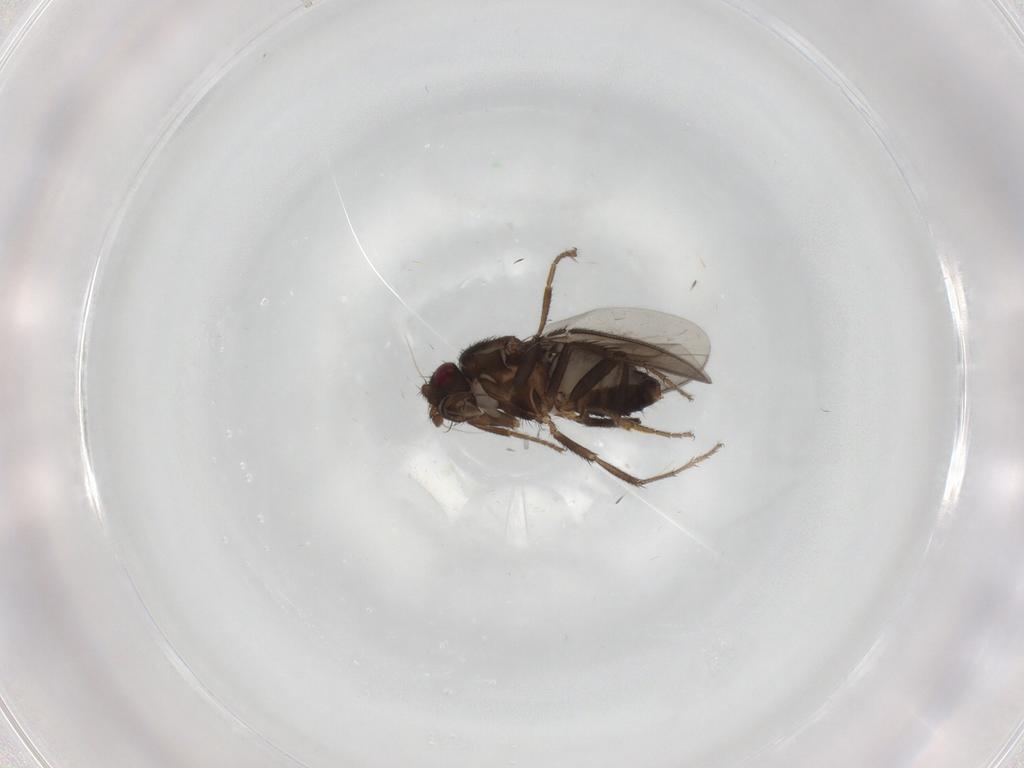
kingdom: Animalia
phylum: Arthropoda
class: Insecta
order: Diptera
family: Sphaeroceridae
